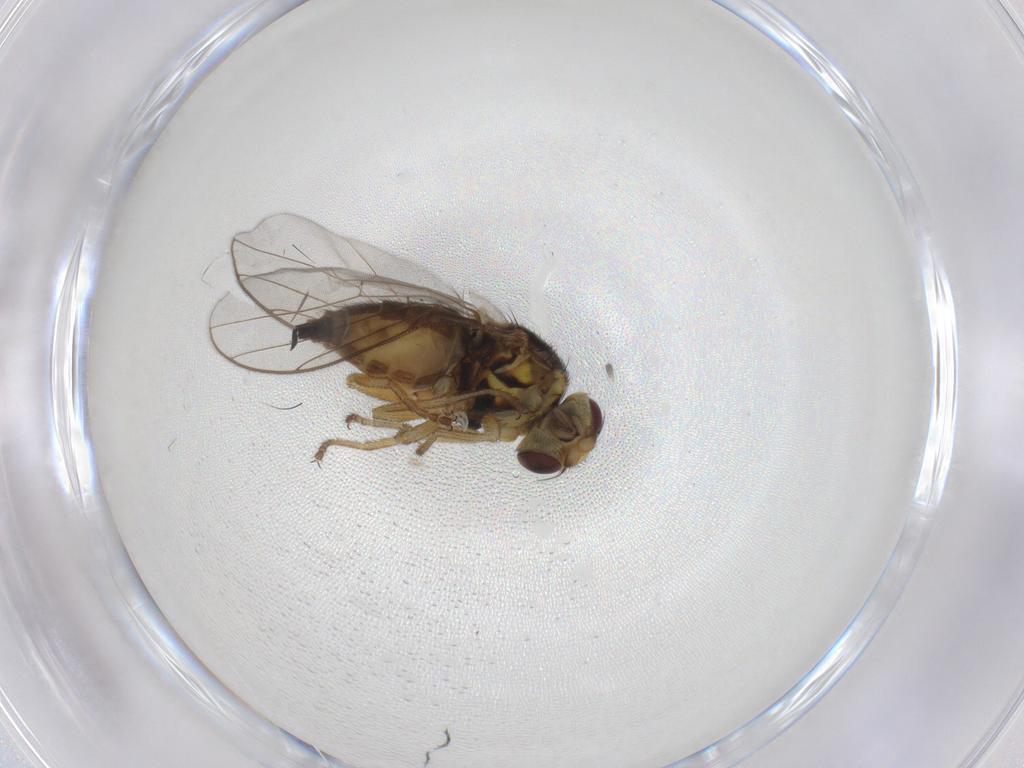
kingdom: Animalia
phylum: Arthropoda
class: Insecta
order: Diptera
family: Chloropidae
